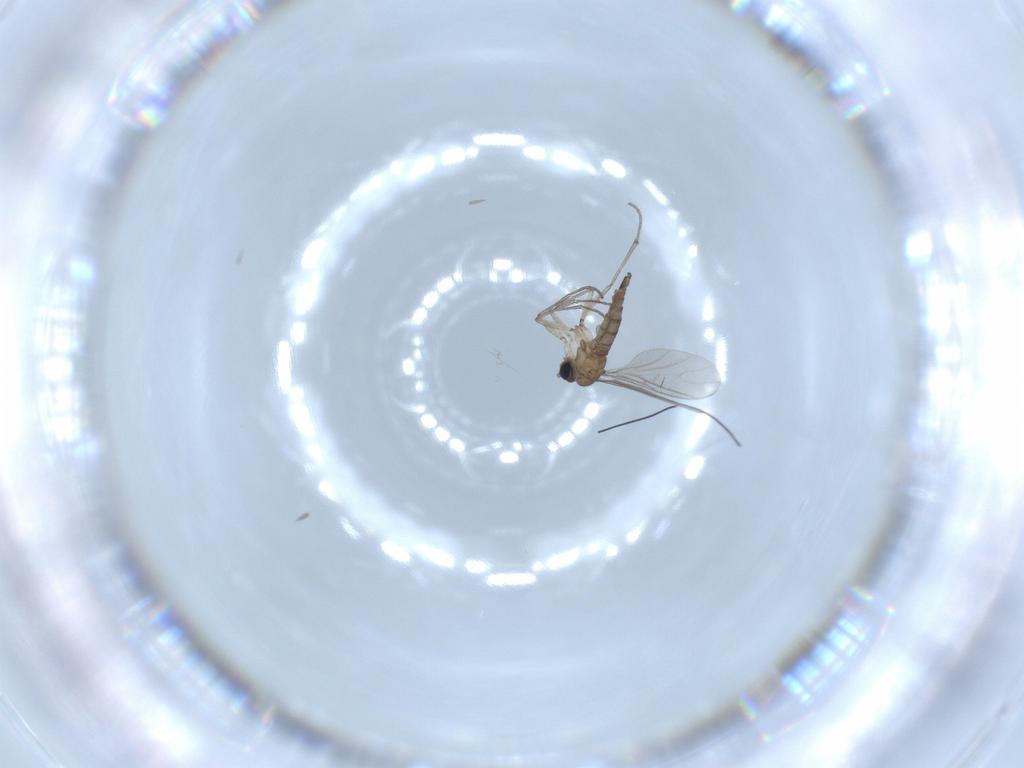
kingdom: Animalia
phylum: Arthropoda
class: Insecta
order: Diptera
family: Sciaridae
